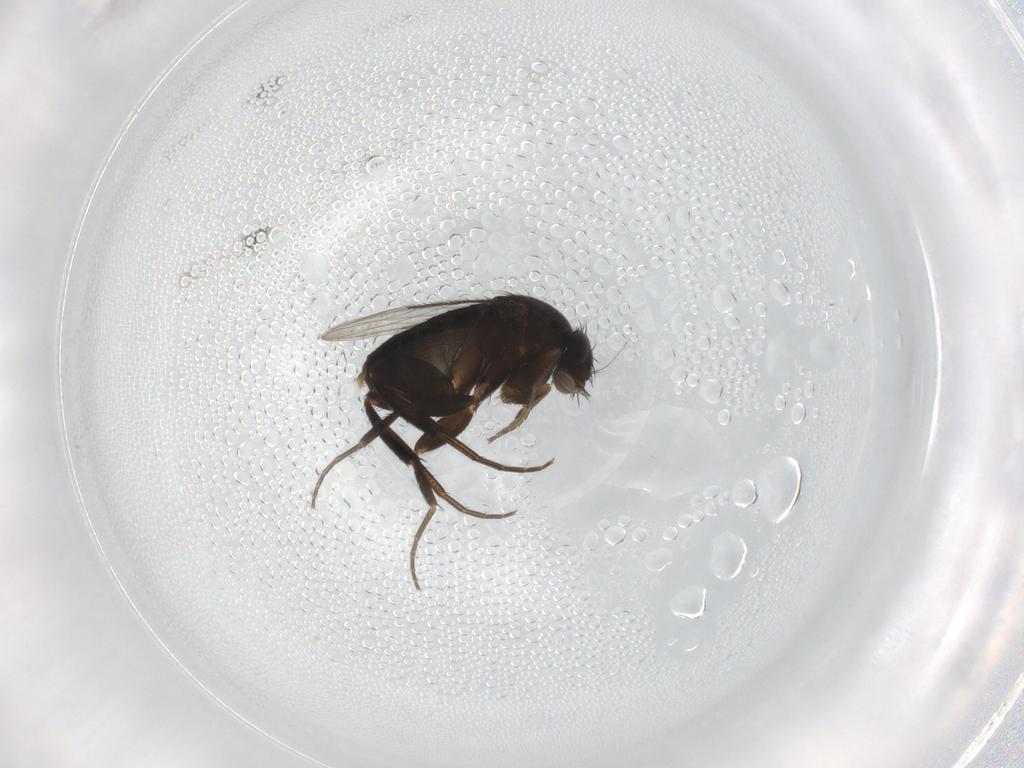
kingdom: Animalia
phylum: Arthropoda
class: Insecta
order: Diptera
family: Phoridae
